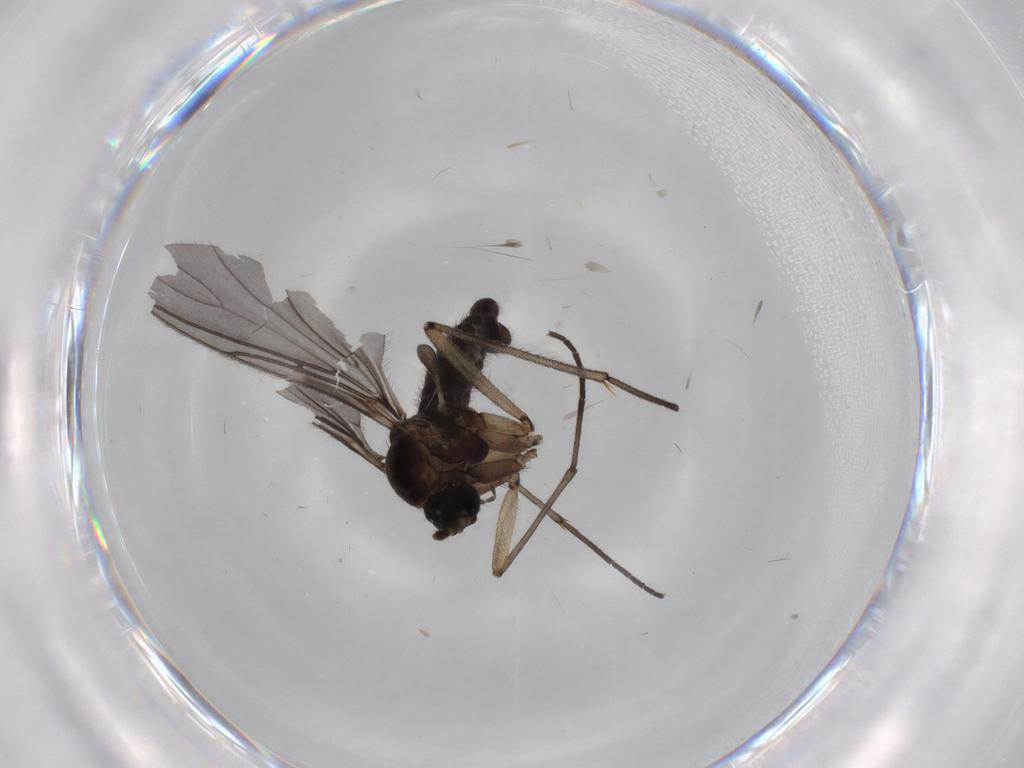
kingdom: Animalia
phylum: Arthropoda
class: Insecta
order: Diptera
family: Sciaridae
